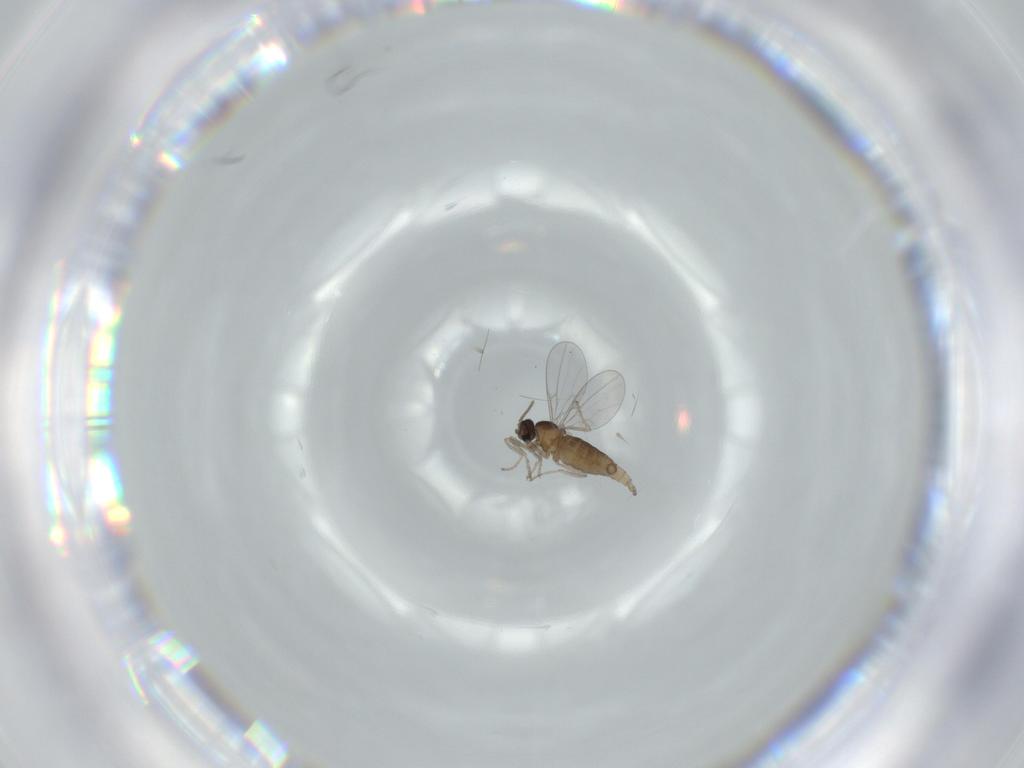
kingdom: Animalia
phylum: Arthropoda
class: Insecta
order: Diptera
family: Cecidomyiidae
